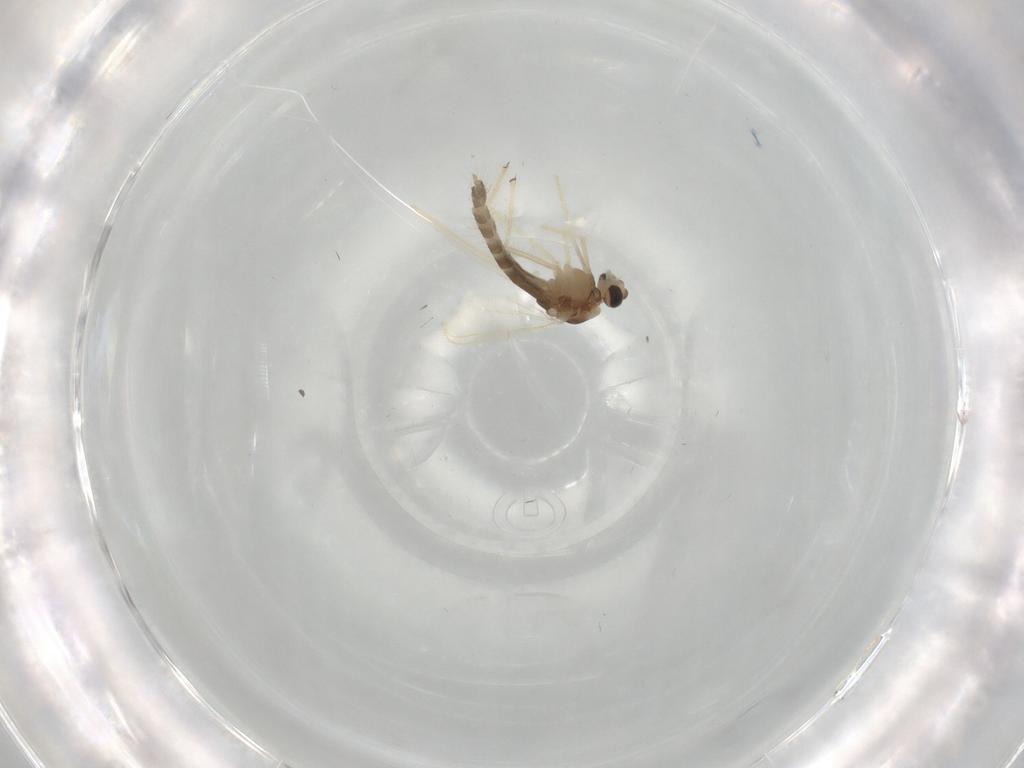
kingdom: Animalia
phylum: Arthropoda
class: Insecta
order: Diptera
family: Chironomidae
